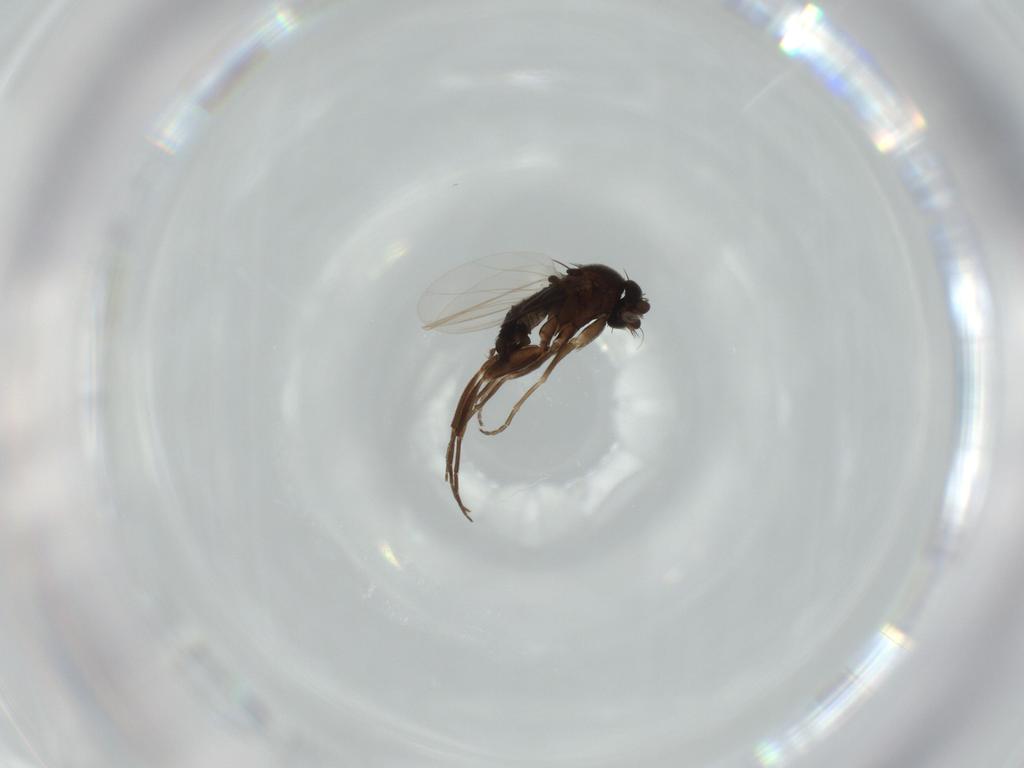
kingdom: Animalia
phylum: Arthropoda
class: Insecta
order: Diptera
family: Phoridae
